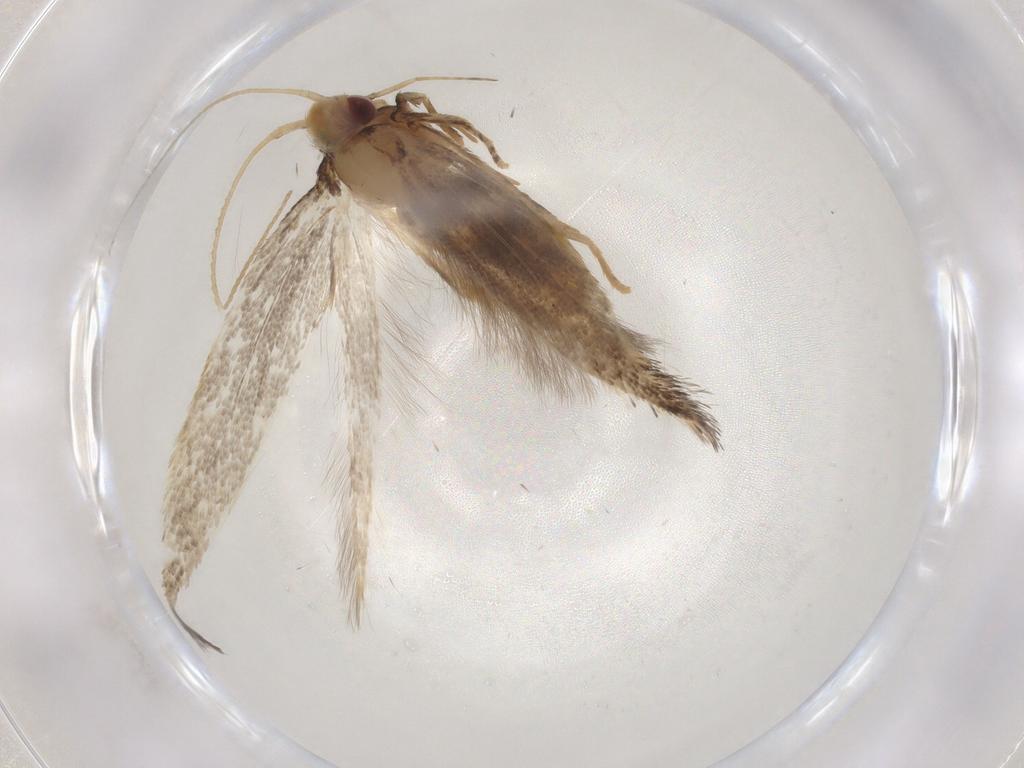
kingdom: Animalia
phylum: Arthropoda
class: Insecta
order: Lepidoptera
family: Cosmopterigidae
